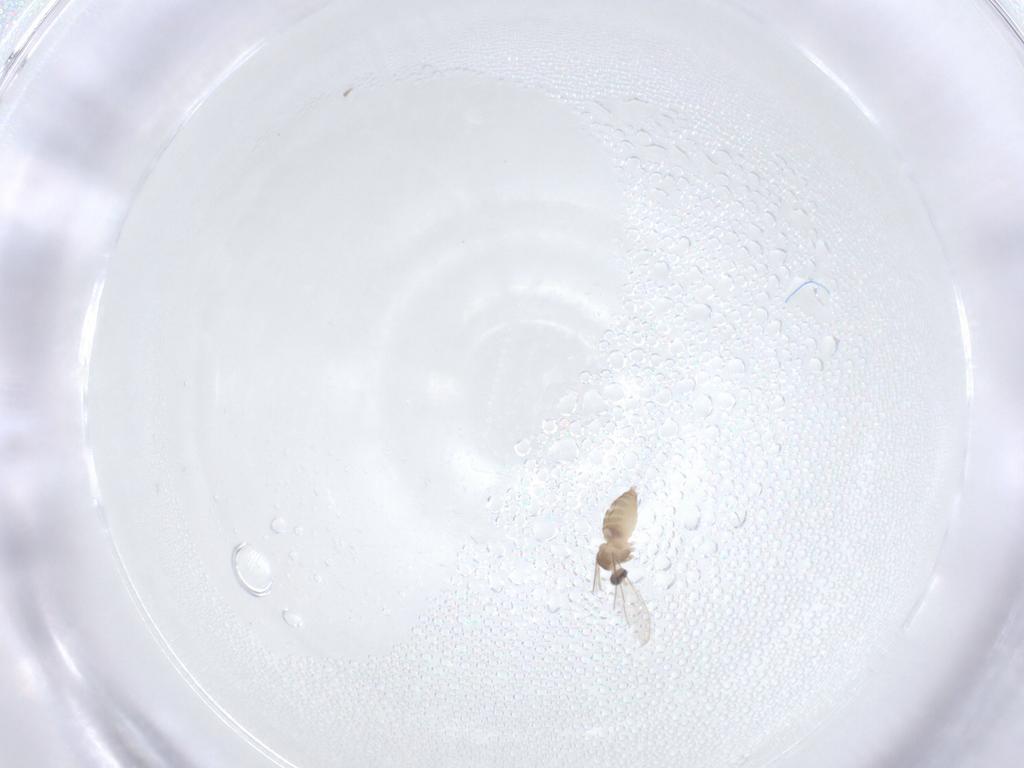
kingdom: Animalia
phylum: Arthropoda
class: Insecta
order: Diptera
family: Cecidomyiidae
